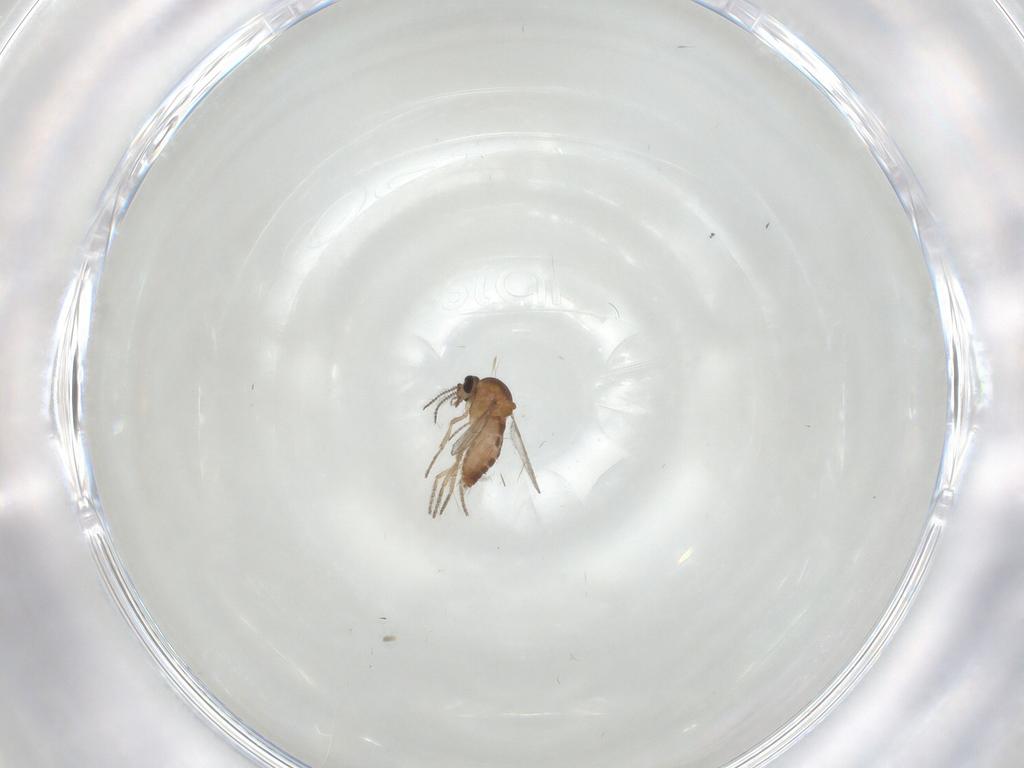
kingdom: Animalia
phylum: Arthropoda
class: Insecta
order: Diptera
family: Ceratopogonidae
